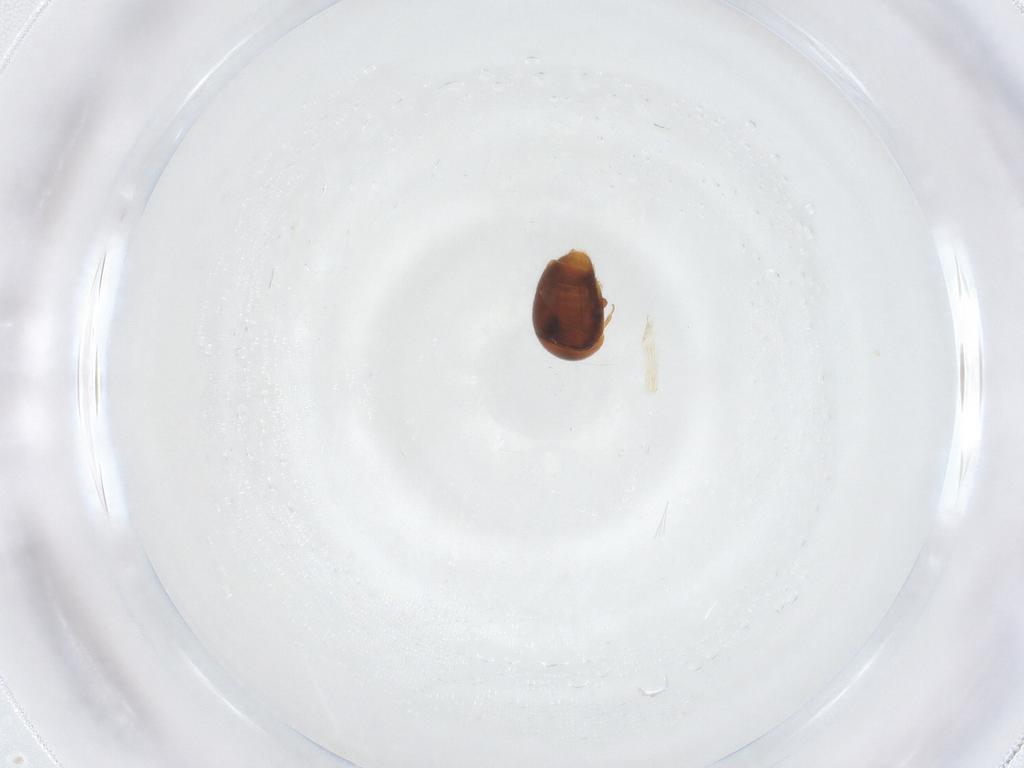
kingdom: Animalia
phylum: Arthropoda
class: Insecta
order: Coleoptera
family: Corylophidae
